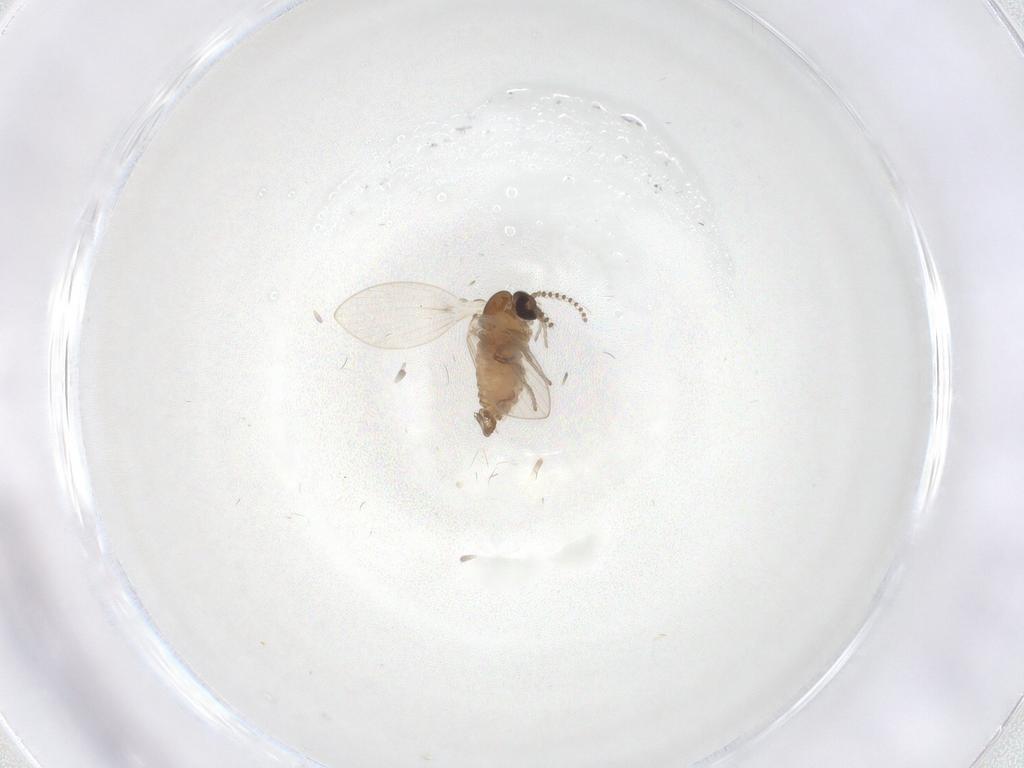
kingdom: Animalia
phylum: Arthropoda
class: Insecta
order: Diptera
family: Psychodidae
